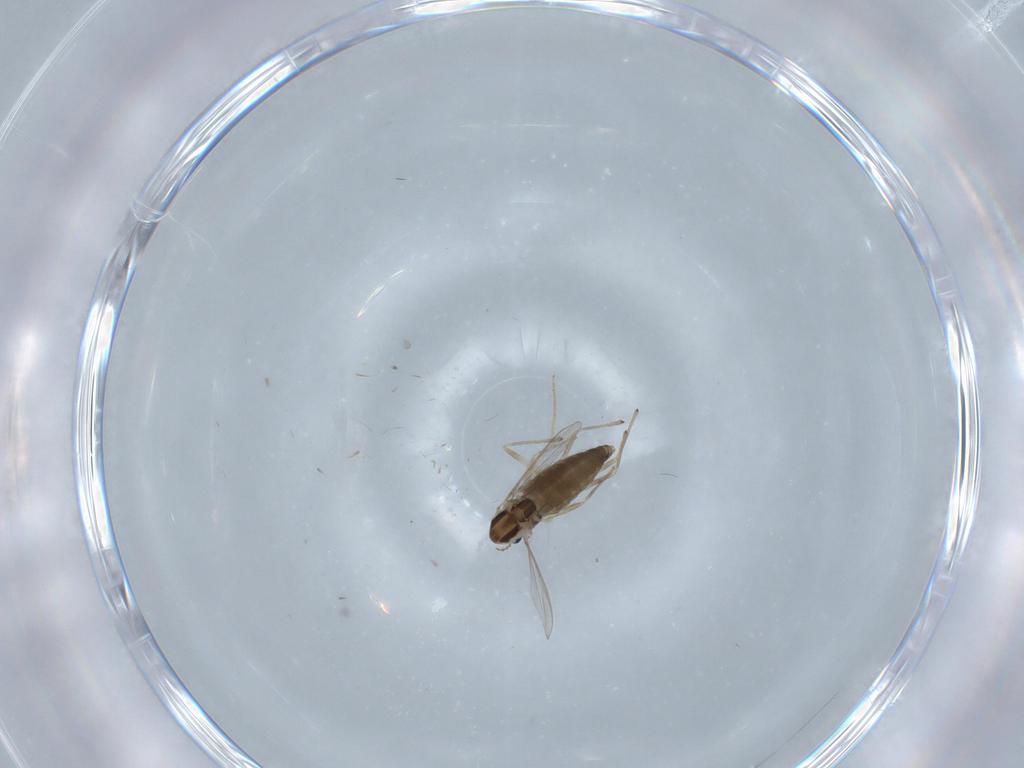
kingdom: Animalia
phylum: Arthropoda
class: Insecta
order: Diptera
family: Chironomidae
